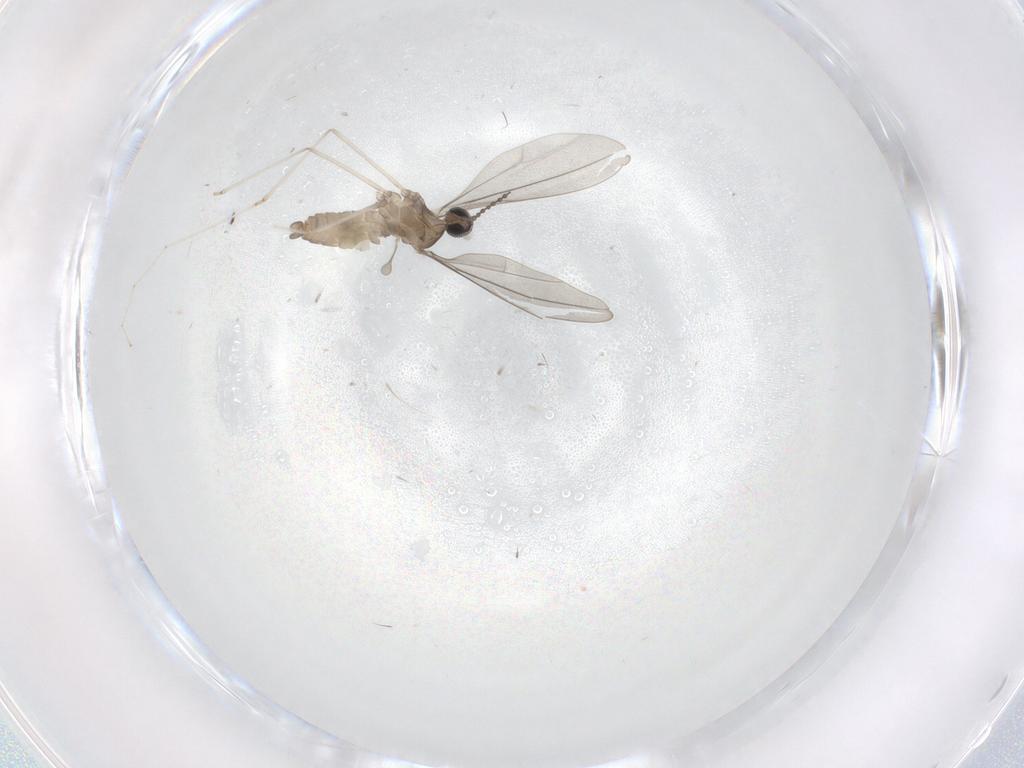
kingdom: Animalia
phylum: Arthropoda
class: Insecta
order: Diptera
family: Cecidomyiidae
